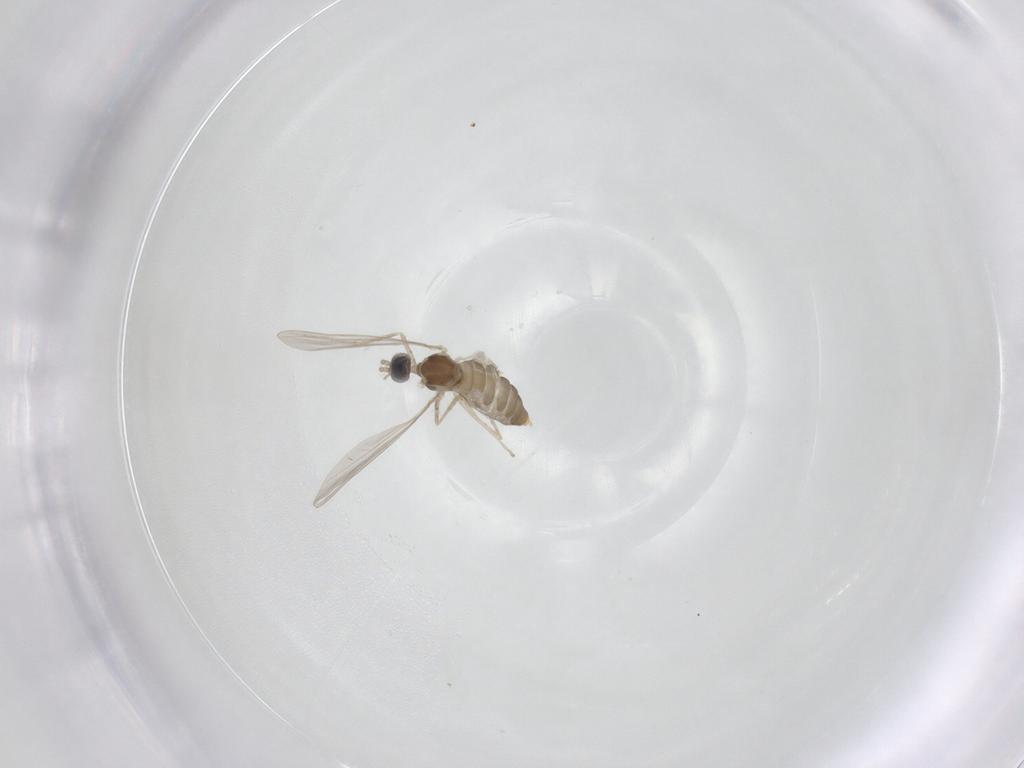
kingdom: Animalia
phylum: Arthropoda
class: Insecta
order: Diptera
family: Cecidomyiidae
